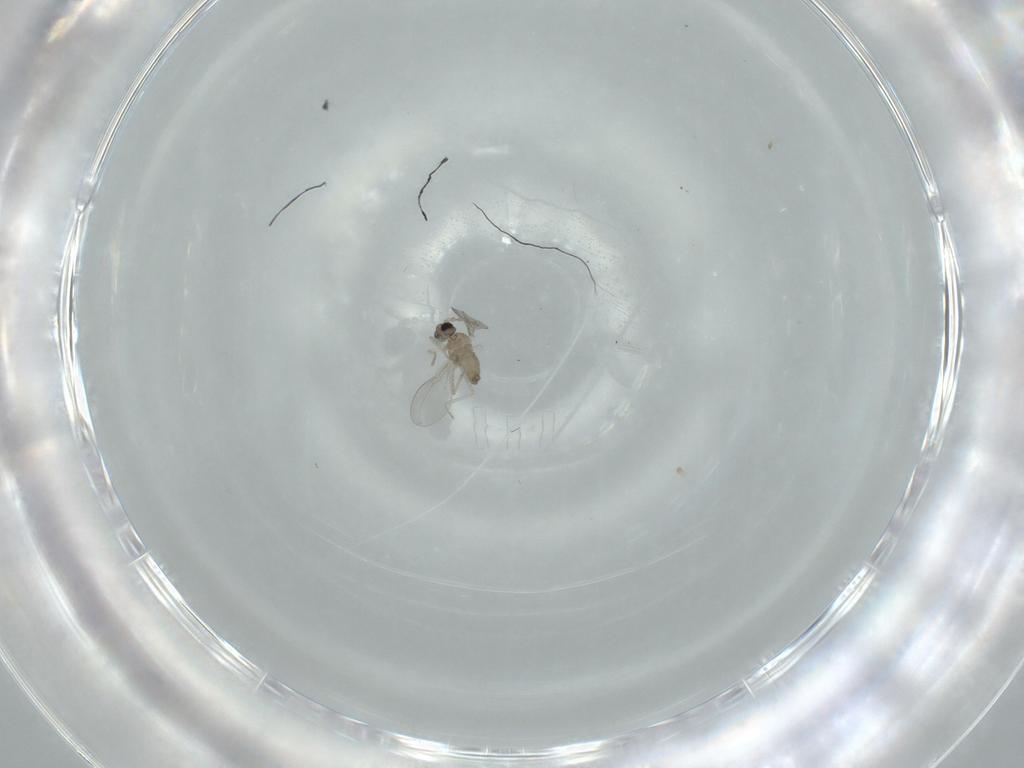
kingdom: Animalia
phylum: Arthropoda
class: Insecta
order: Diptera
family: Cecidomyiidae
